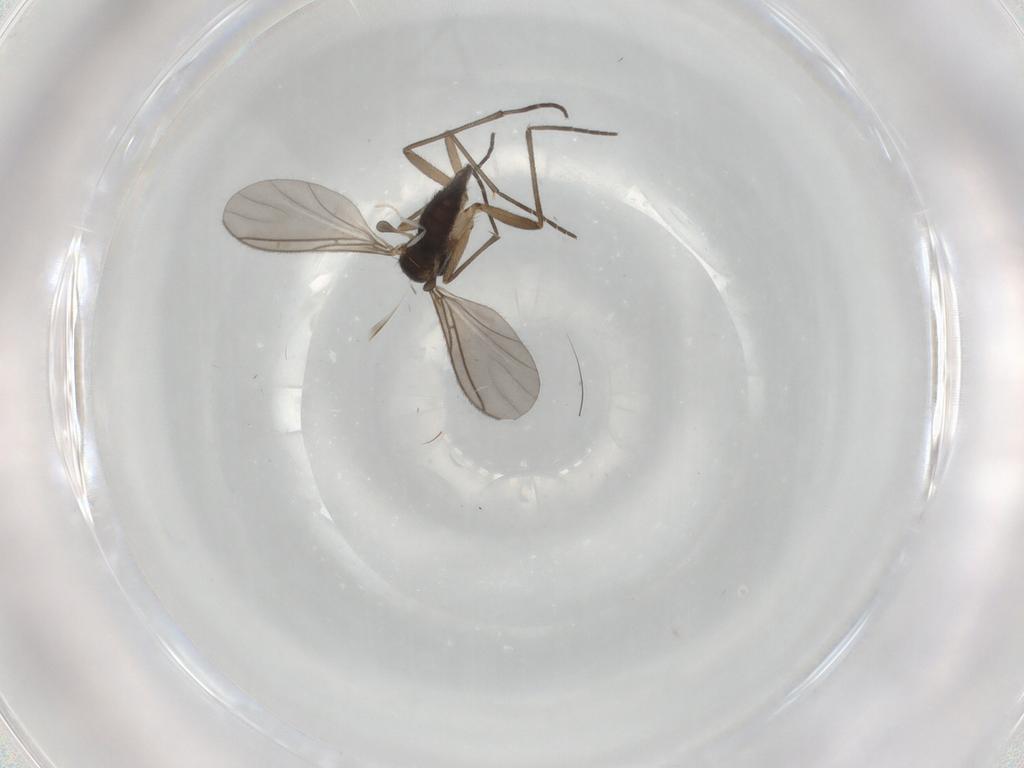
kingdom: Animalia
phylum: Arthropoda
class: Insecta
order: Diptera
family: Sciaridae
